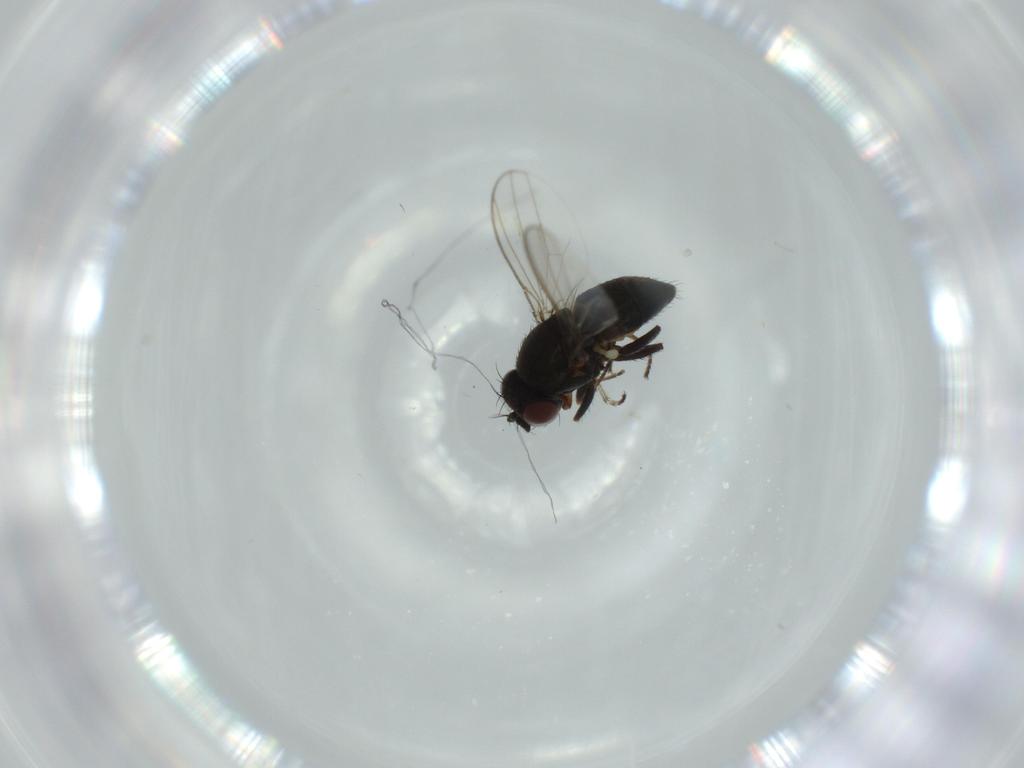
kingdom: Animalia
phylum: Arthropoda
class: Insecta
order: Diptera
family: Ephydridae
